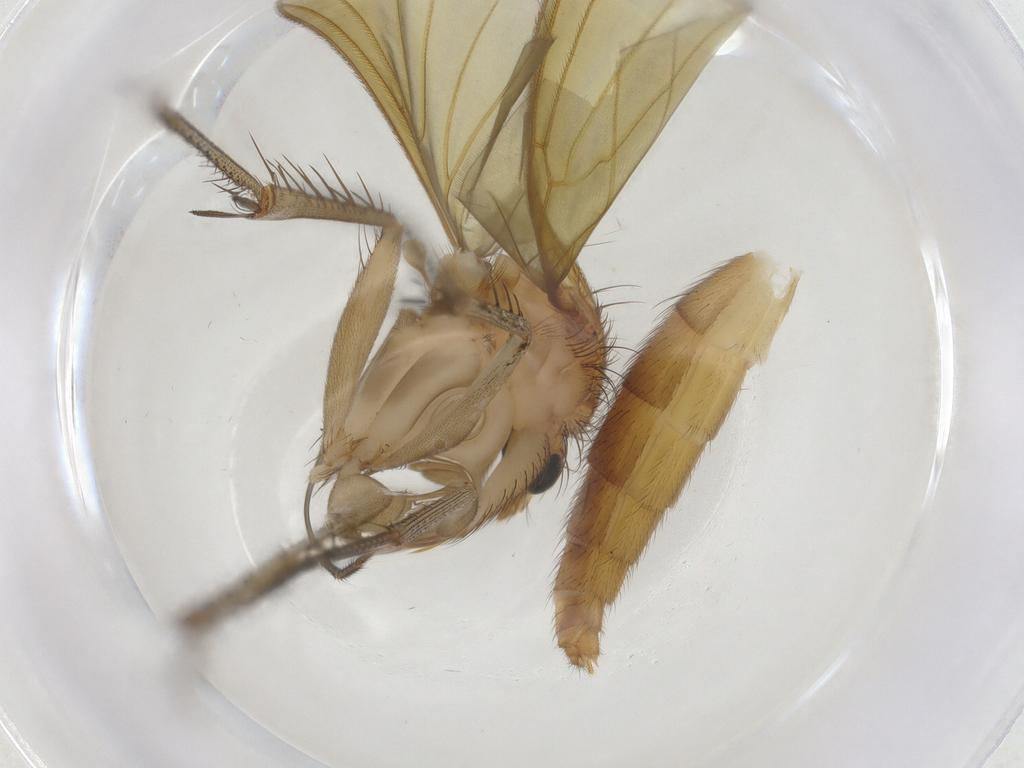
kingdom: Animalia
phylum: Arthropoda
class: Insecta
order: Diptera
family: Mycetophilidae
